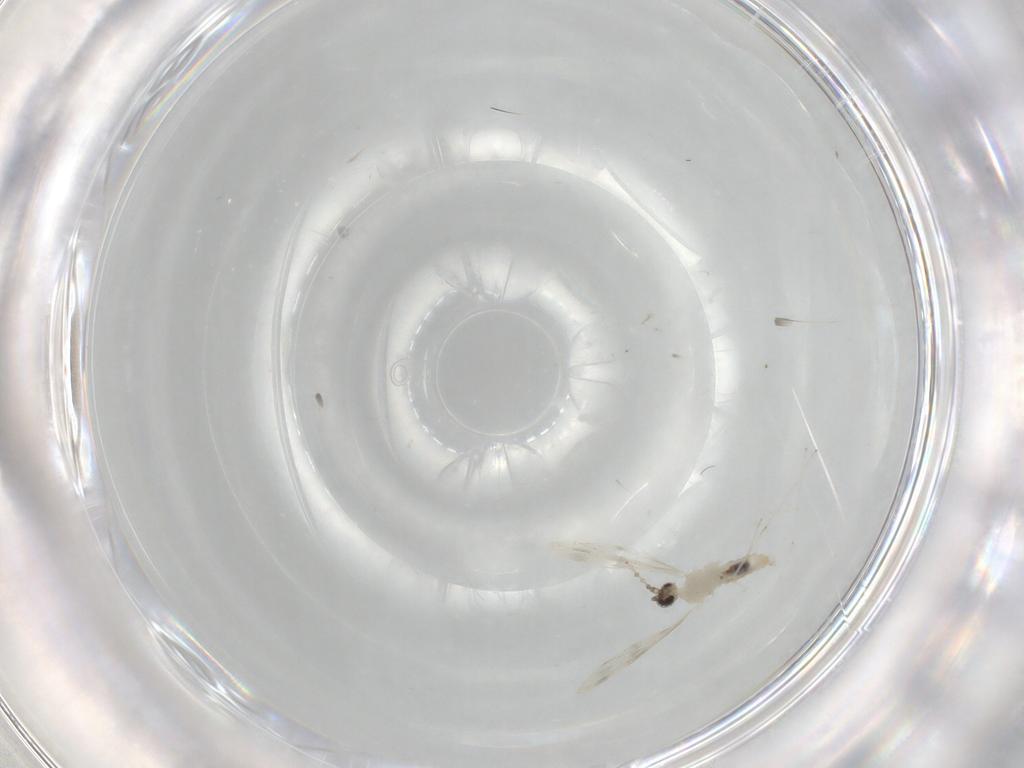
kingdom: Animalia
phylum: Arthropoda
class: Insecta
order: Diptera
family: Cecidomyiidae
